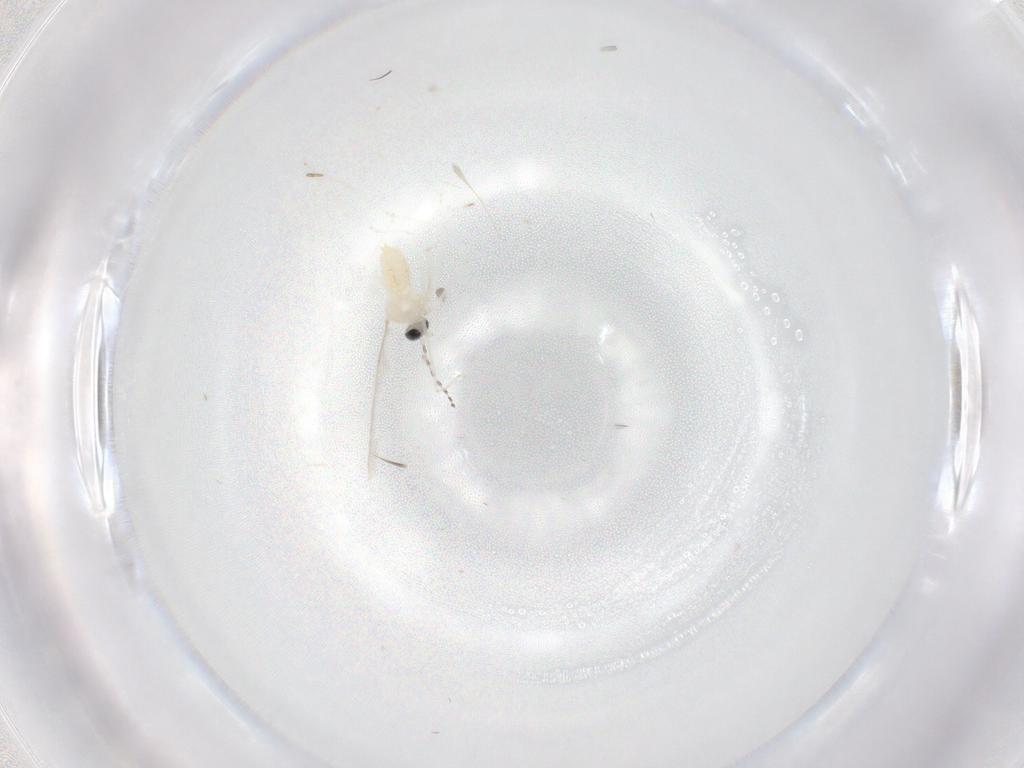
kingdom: Animalia
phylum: Arthropoda
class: Insecta
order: Diptera
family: Cecidomyiidae
